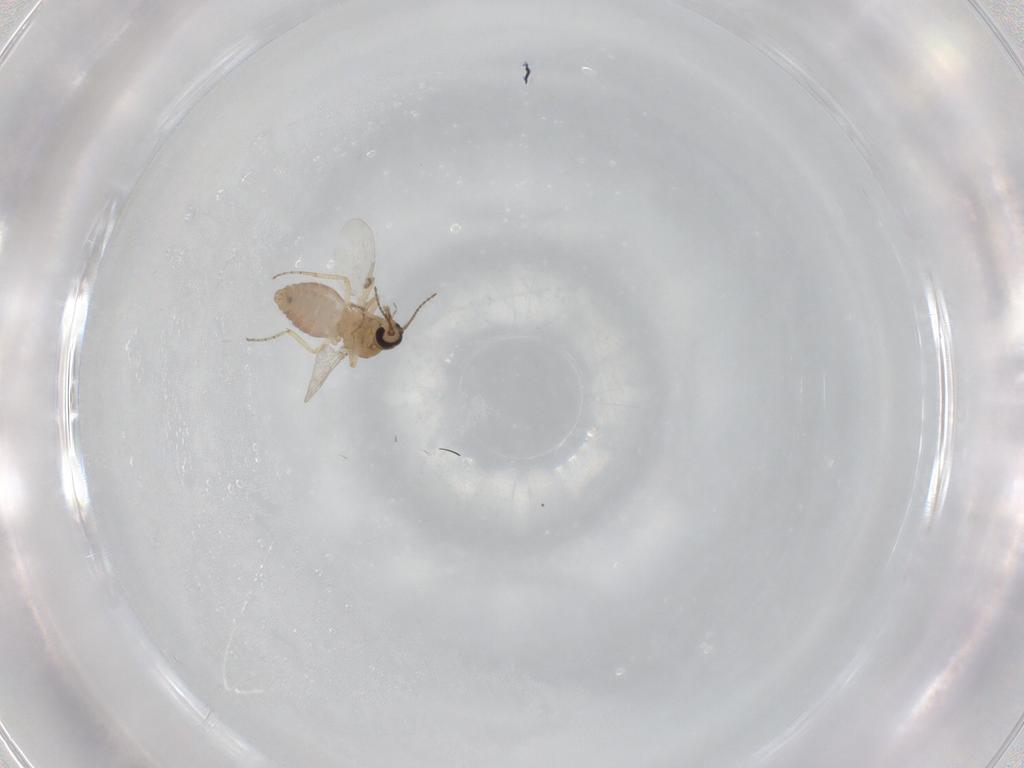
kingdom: Animalia
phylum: Arthropoda
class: Insecta
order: Diptera
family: Ceratopogonidae
